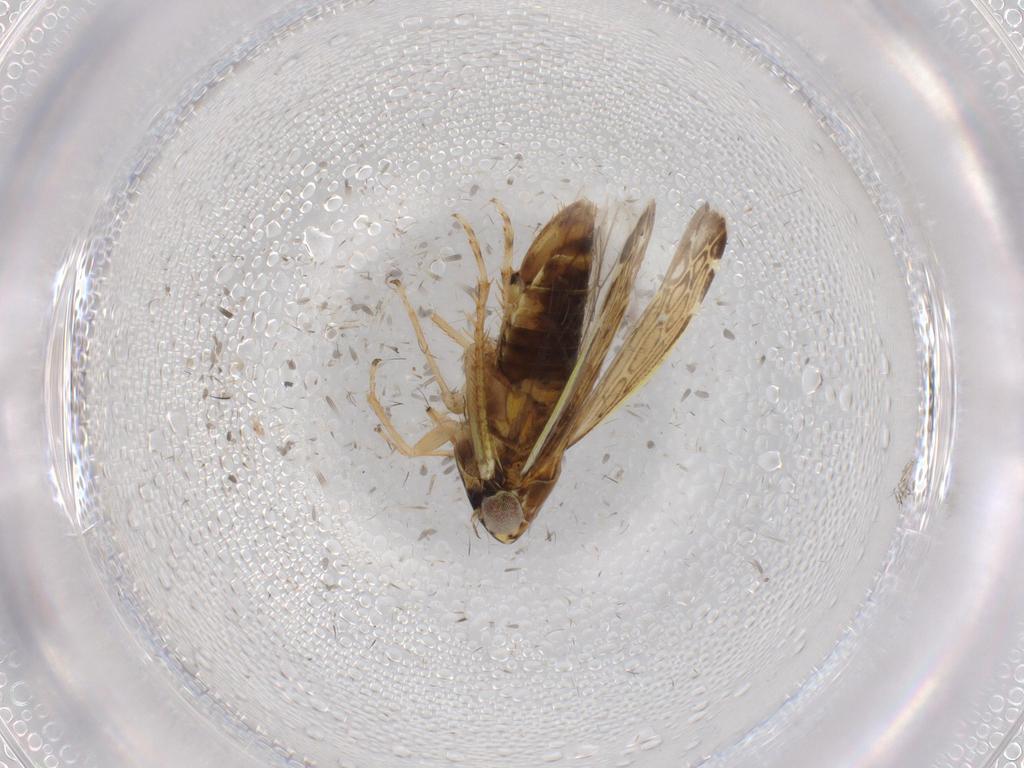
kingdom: Animalia
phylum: Arthropoda
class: Insecta
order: Hemiptera
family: Cicadellidae
